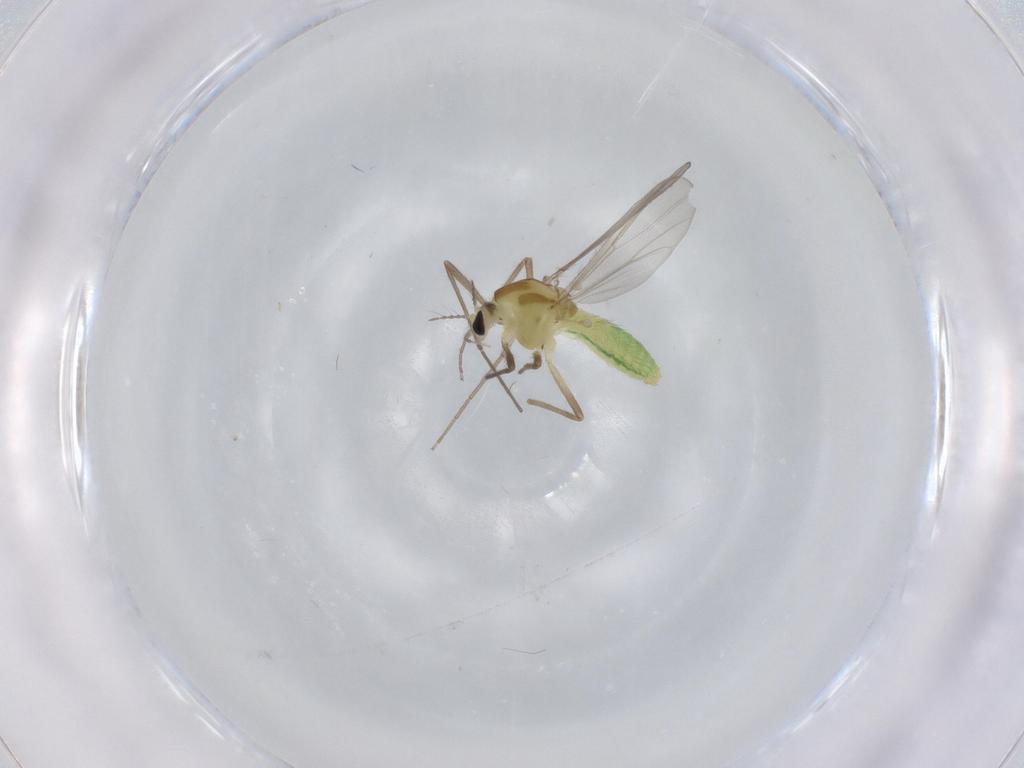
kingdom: Animalia
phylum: Arthropoda
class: Insecta
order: Diptera
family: Chironomidae
